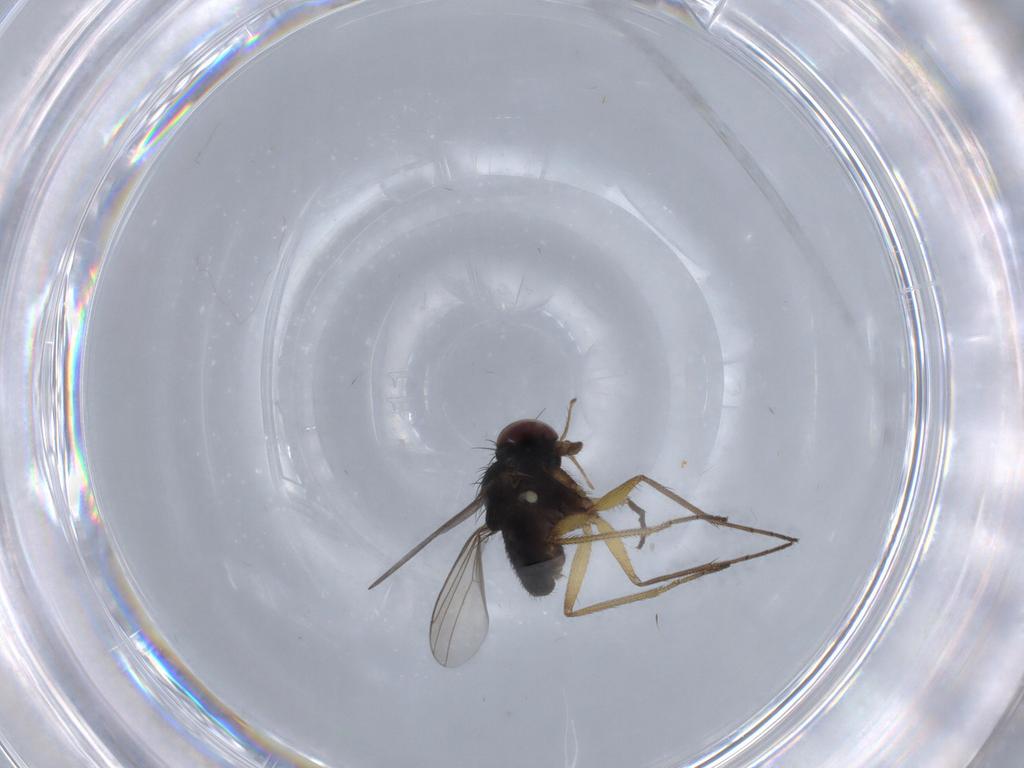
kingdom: Animalia
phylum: Arthropoda
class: Insecta
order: Diptera
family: Dolichopodidae
